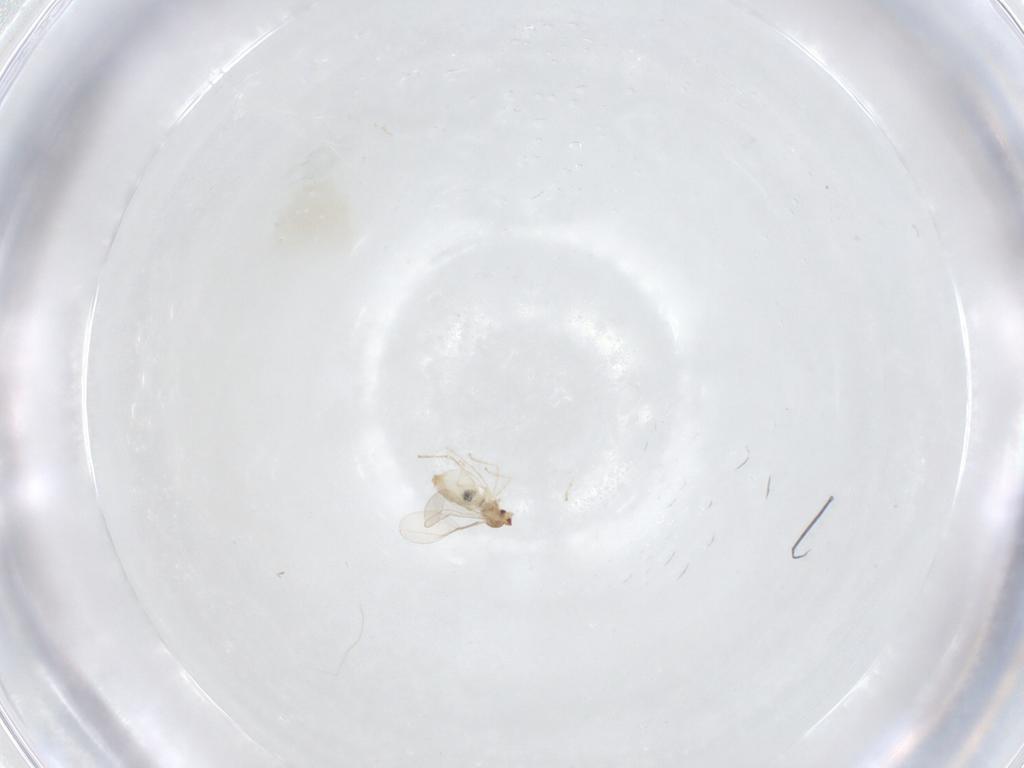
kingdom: Animalia
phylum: Arthropoda
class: Insecta
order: Diptera
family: Cecidomyiidae
